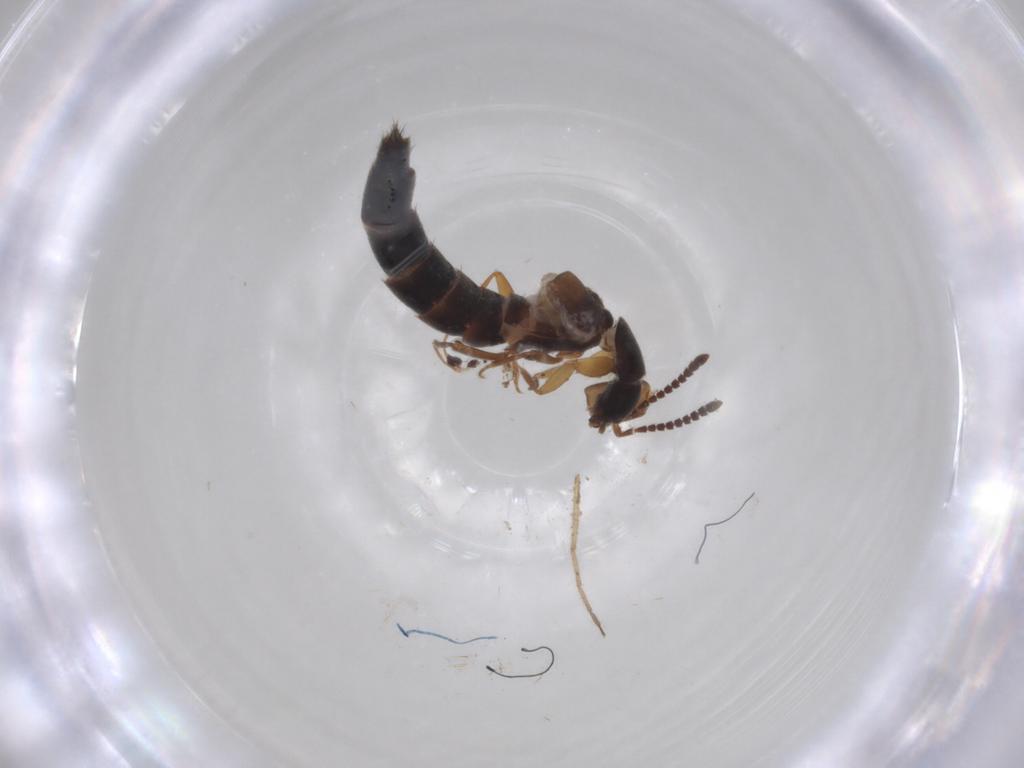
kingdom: Animalia
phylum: Arthropoda
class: Insecta
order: Coleoptera
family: Staphylinidae
